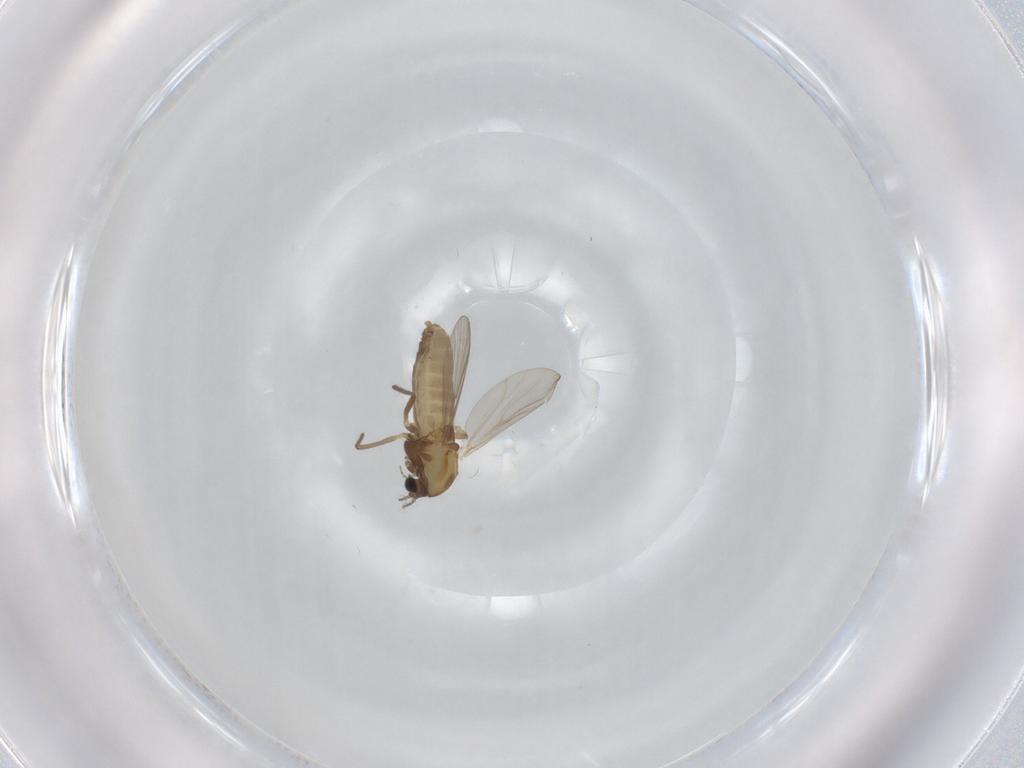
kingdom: Animalia
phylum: Arthropoda
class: Insecta
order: Diptera
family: Chironomidae
